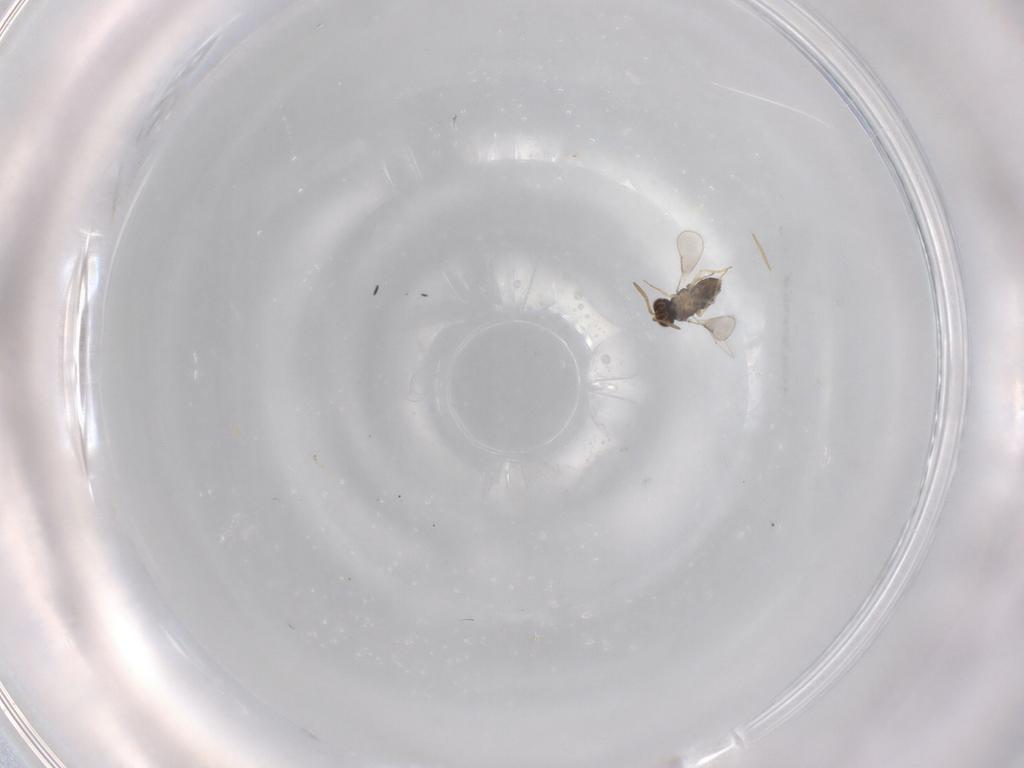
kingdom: Animalia
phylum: Arthropoda
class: Insecta
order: Hymenoptera
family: Aphelinidae
